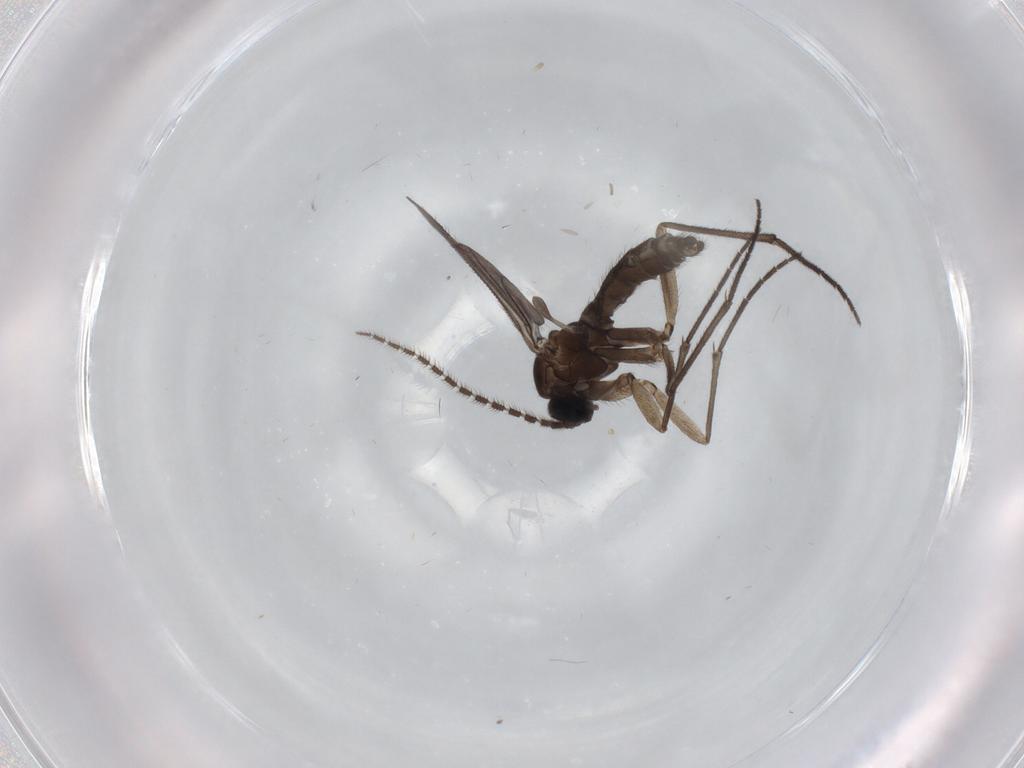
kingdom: Animalia
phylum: Arthropoda
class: Insecta
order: Diptera
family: Sciaridae
